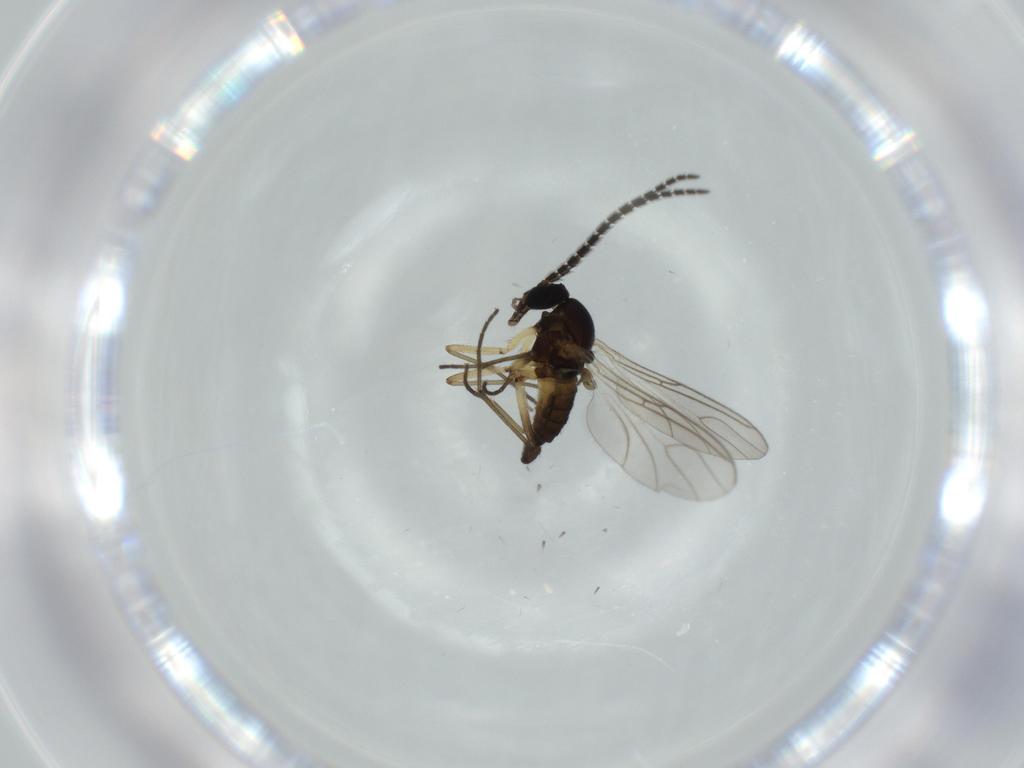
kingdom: Animalia
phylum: Arthropoda
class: Insecta
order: Diptera
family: Sciaridae
